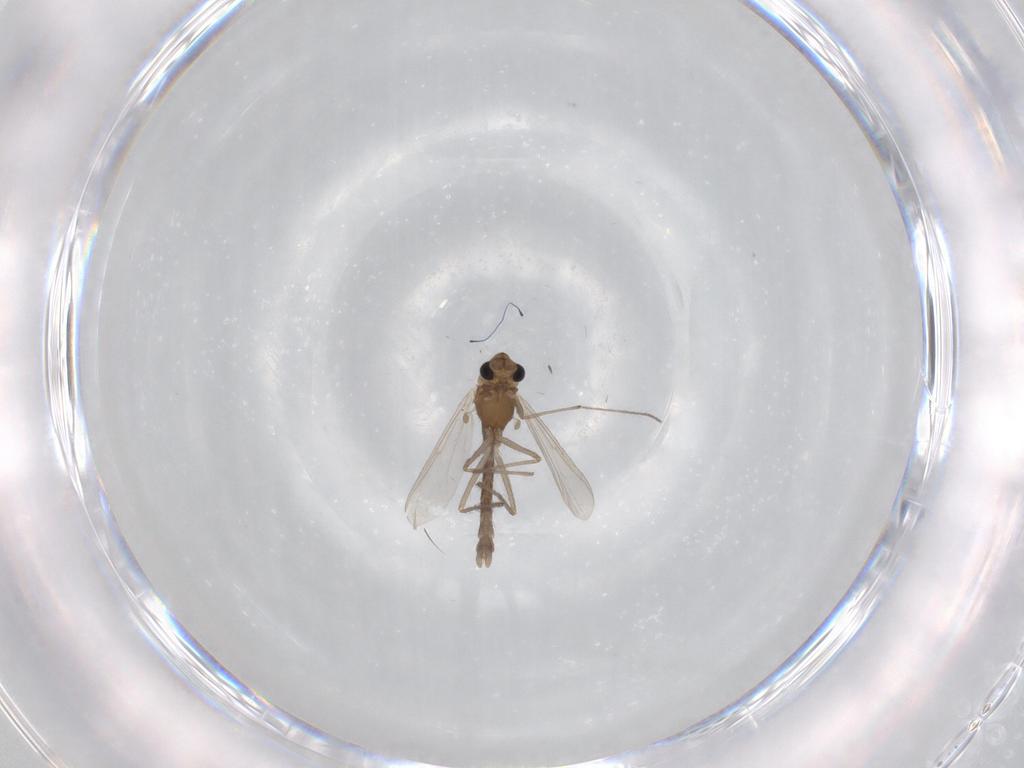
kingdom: Animalia
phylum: Arthropoda
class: Insecta
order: Diptera
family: Chironomidae
